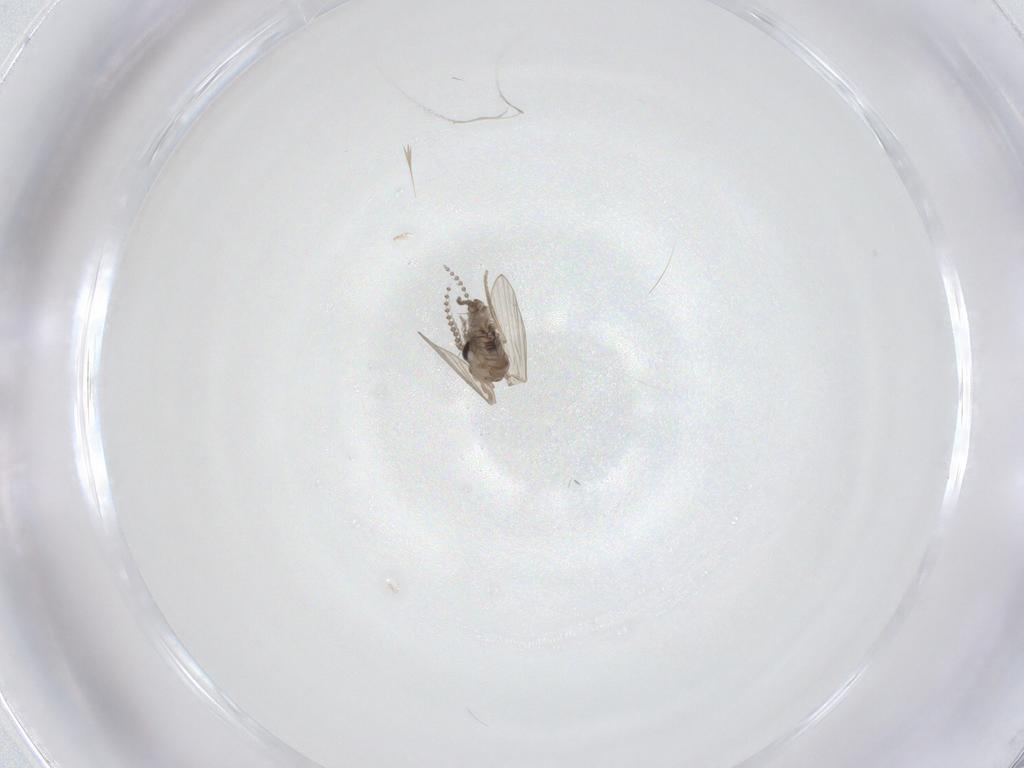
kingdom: Animalia
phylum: Arthropoda
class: Insecta
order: Diptera
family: Psychodidae
